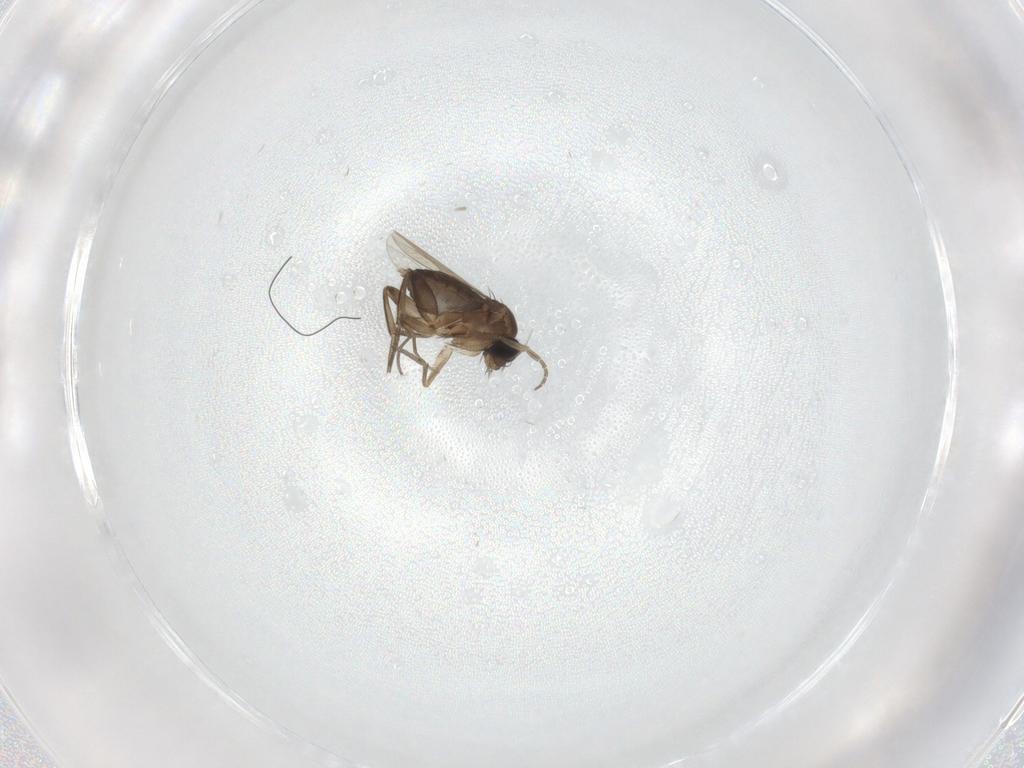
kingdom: Animalia
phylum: Arthropoda
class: Insecta
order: Diptera
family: Phoridae
